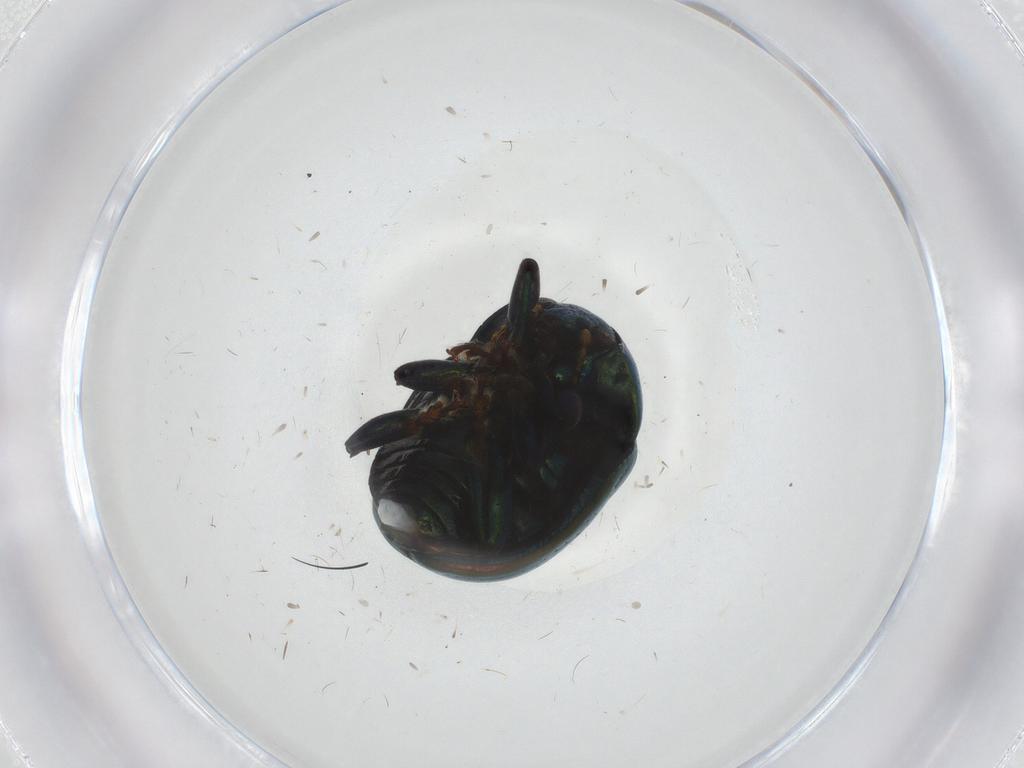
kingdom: Animalia
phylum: Arthropoda
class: Insecta
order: Coleoptera
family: Chrysomelidae
